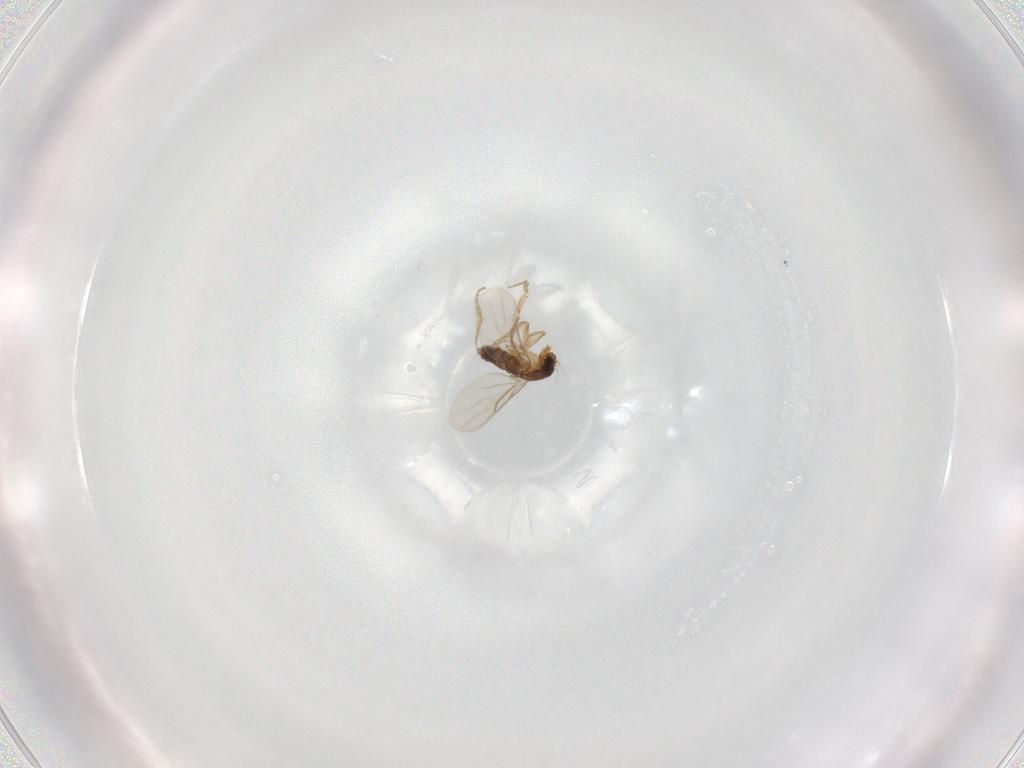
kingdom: Animalia
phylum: Arthropoda
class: Insecta
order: Diptera
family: Phoridae
